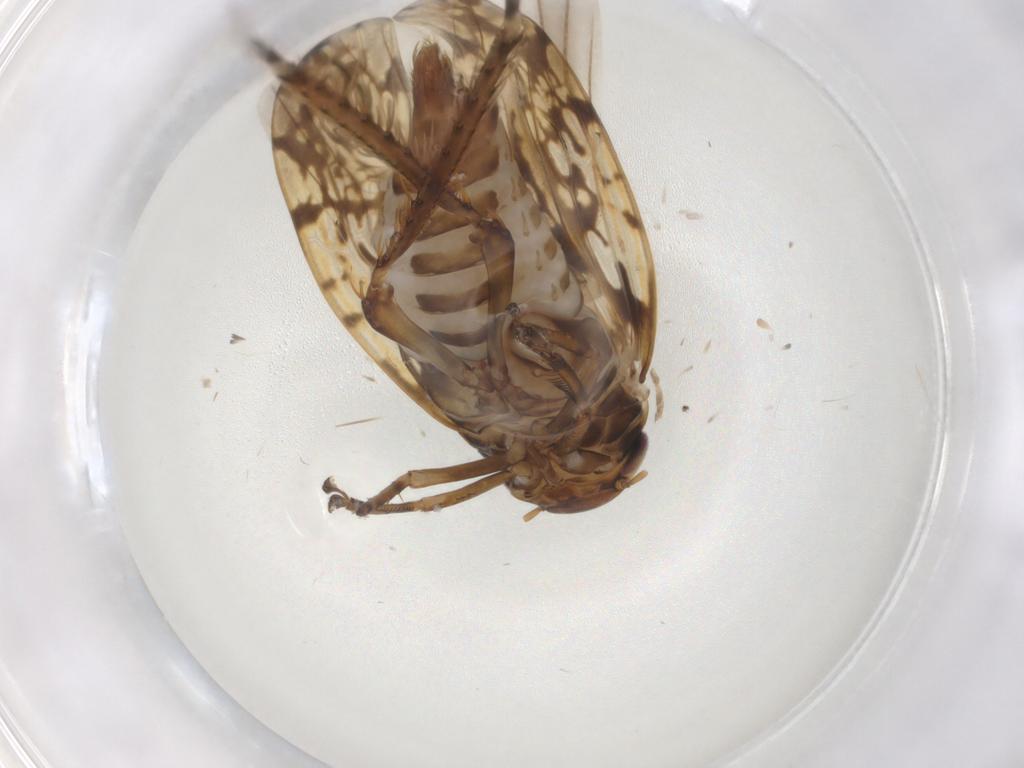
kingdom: Animalia
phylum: Arthropoda
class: Insecta
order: Hemiptera
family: Cicadellidae
